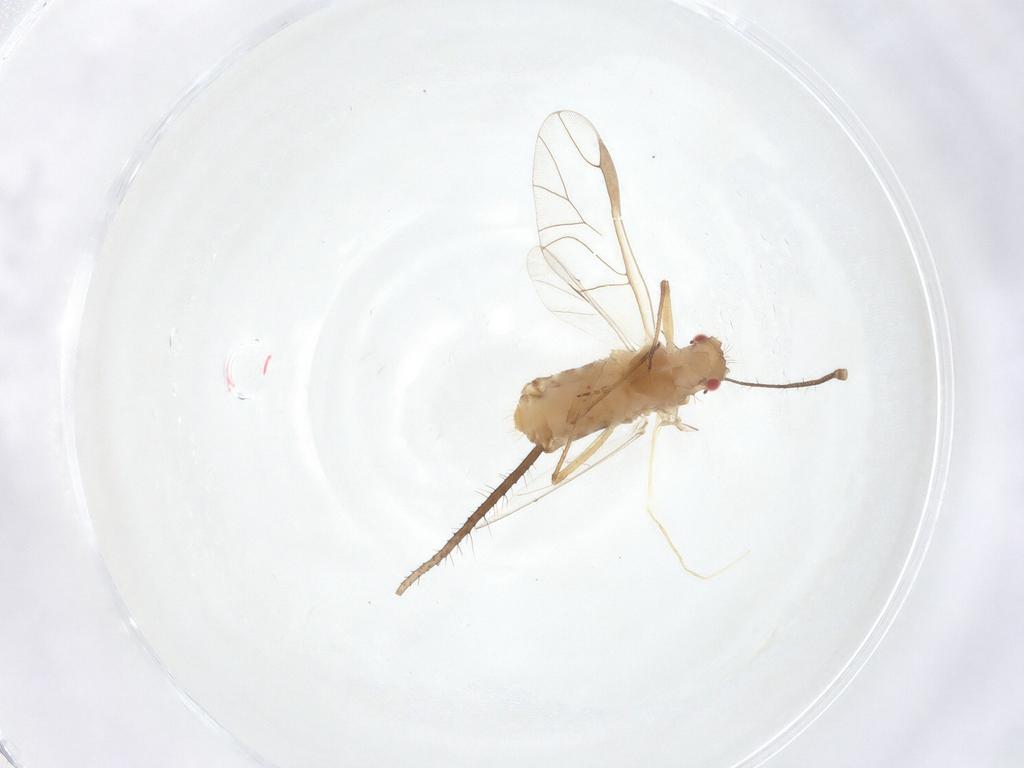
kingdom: Animalia
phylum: Arthropoda
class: Insecta
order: Hemiptera
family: Aphididae
